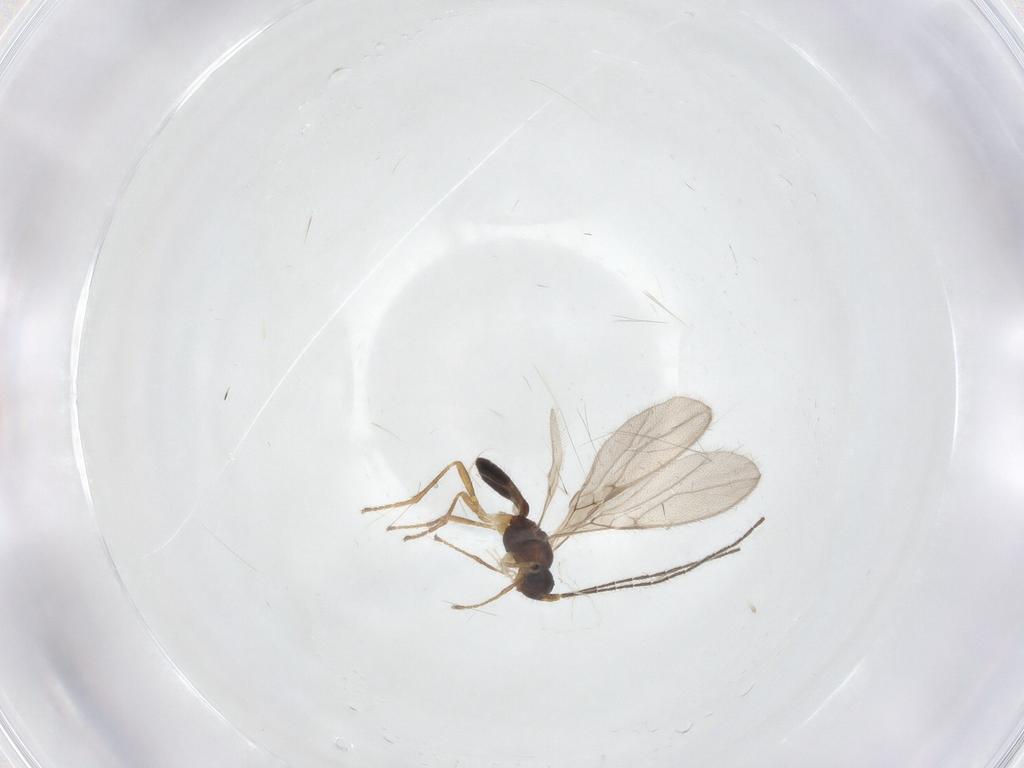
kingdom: Animalia
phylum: Arthropoda
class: Insecta
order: Hymenoptera
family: Braconidae
